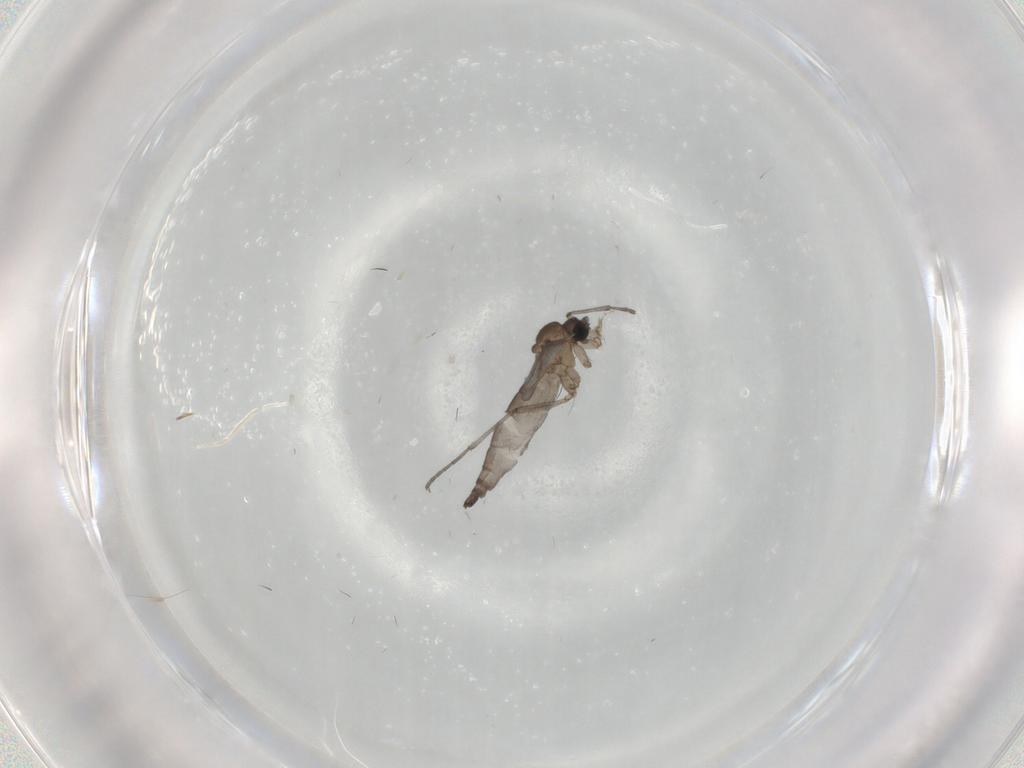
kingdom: Animalia
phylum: Arthropoda
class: Insecta
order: Diptera
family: Sciaridae
